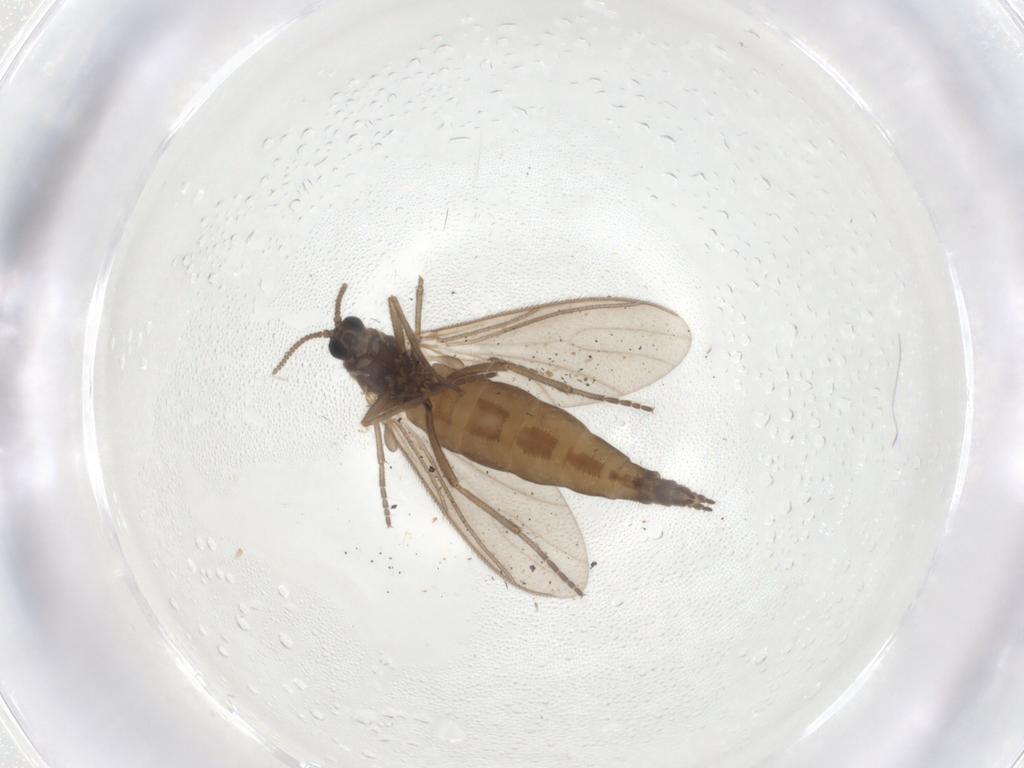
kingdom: Animalia
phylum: Arthropoda
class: Insecta
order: Diptera
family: Sciaridae
